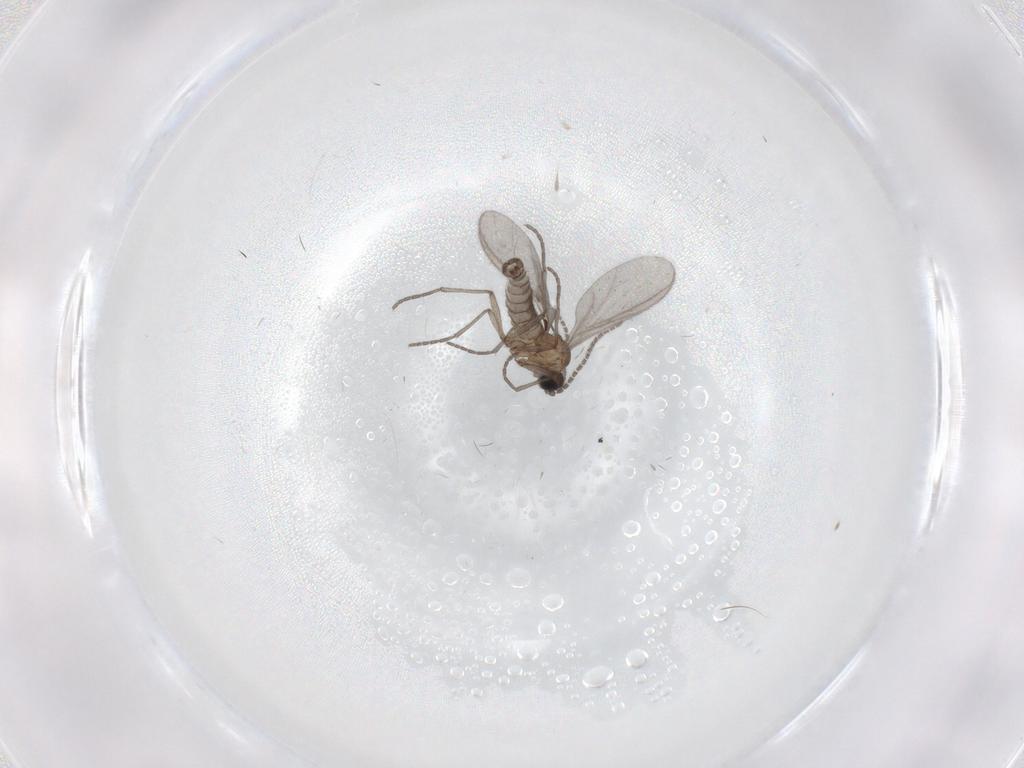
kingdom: Animalia
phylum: Arthropoda
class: Insecta
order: Diptera
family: Sciaridae
